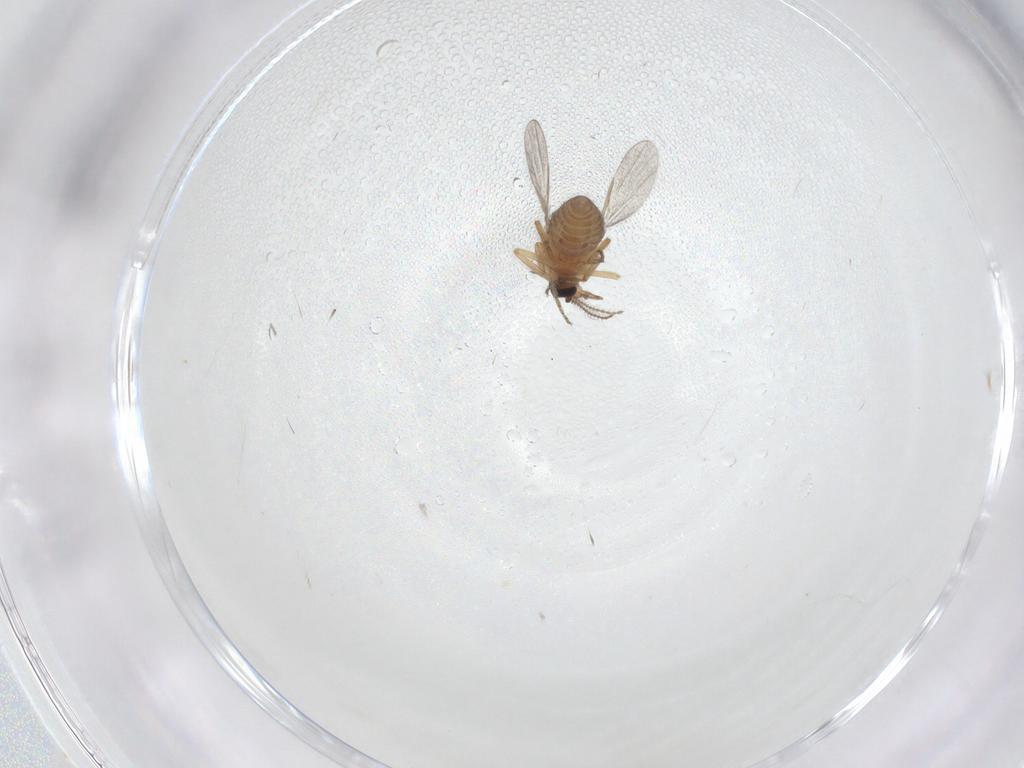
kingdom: Animalia
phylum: Arthropoda
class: Insecta
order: Diptera
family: Ceratopogonidae
